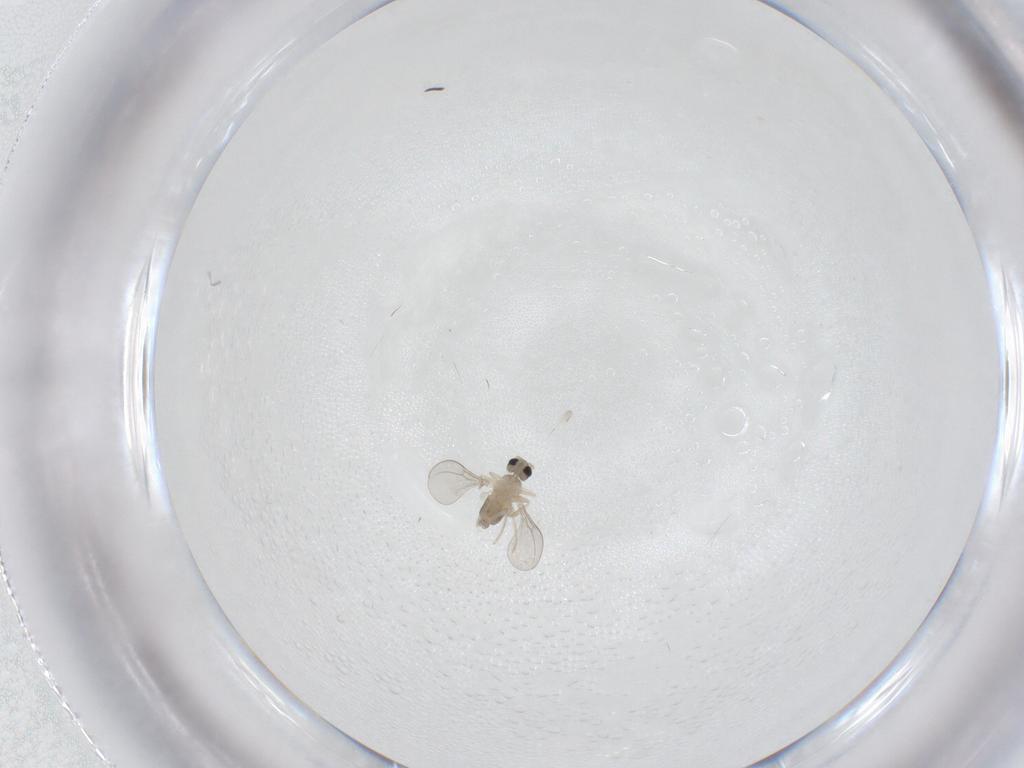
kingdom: Animalia
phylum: Arthropoda
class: Insecta
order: Diptera
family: Cecidomyiidae
